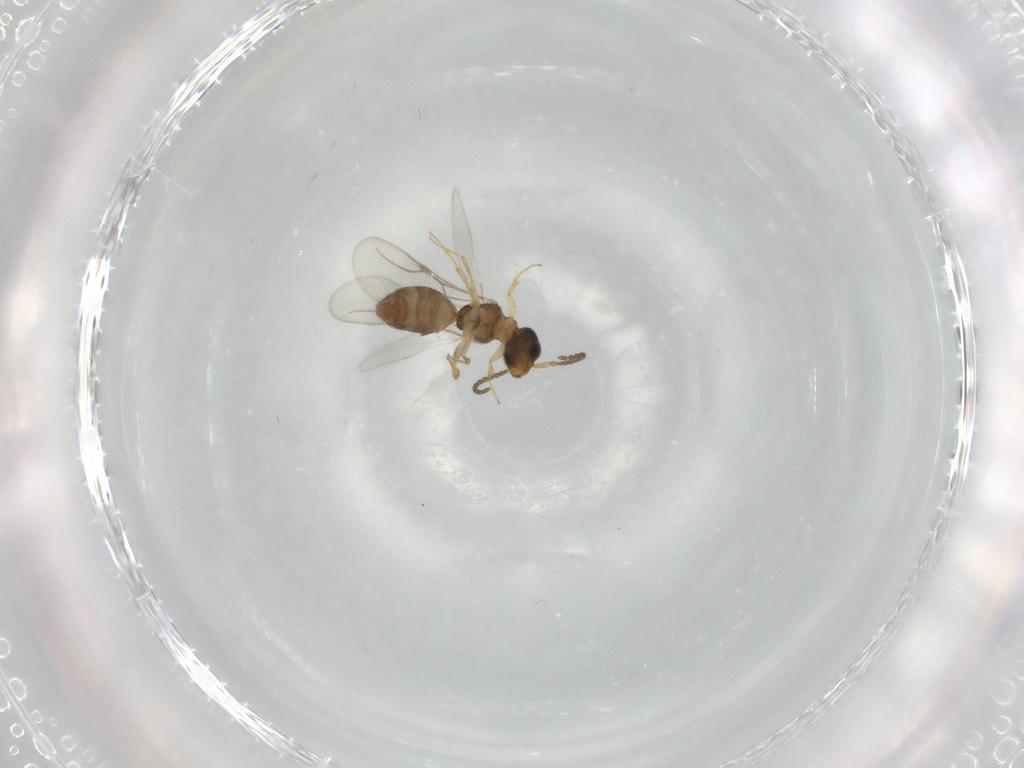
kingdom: Animalia
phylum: Arthropoda
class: Insecta
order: Hymenoptera
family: Bethylidae
